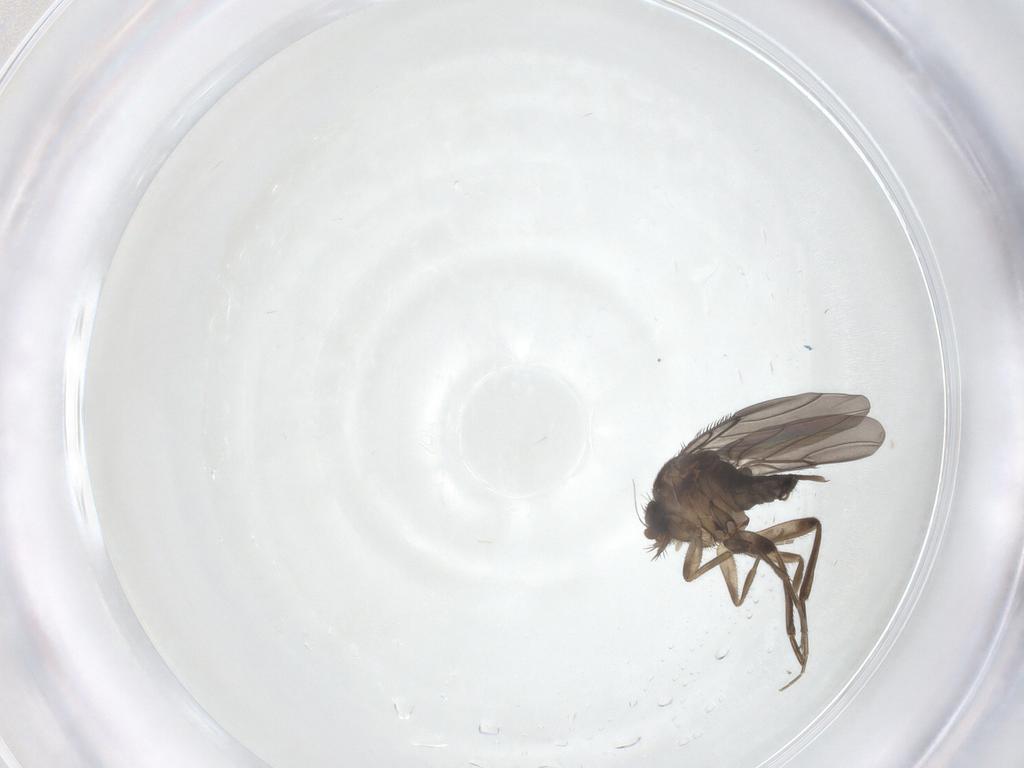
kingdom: Animalia
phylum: Arthropoda
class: Insecta
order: Diptera
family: Phoridae
